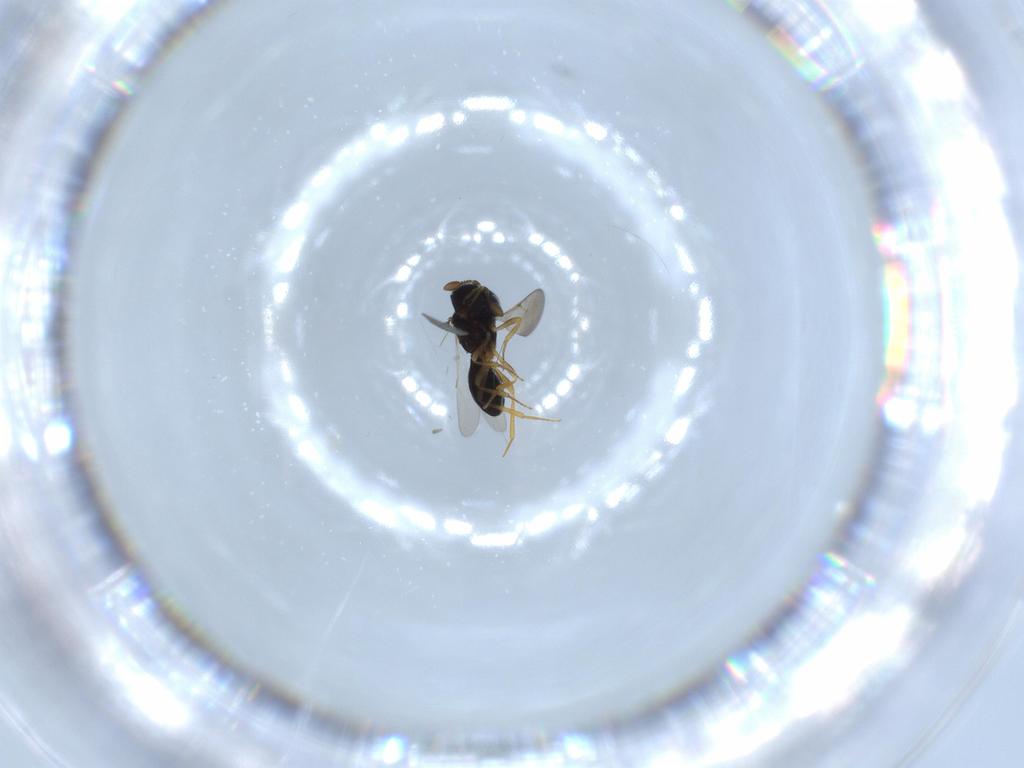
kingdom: Animalia
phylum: Arthropoda
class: Insecta
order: Hymenoptera
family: Scelionidae
